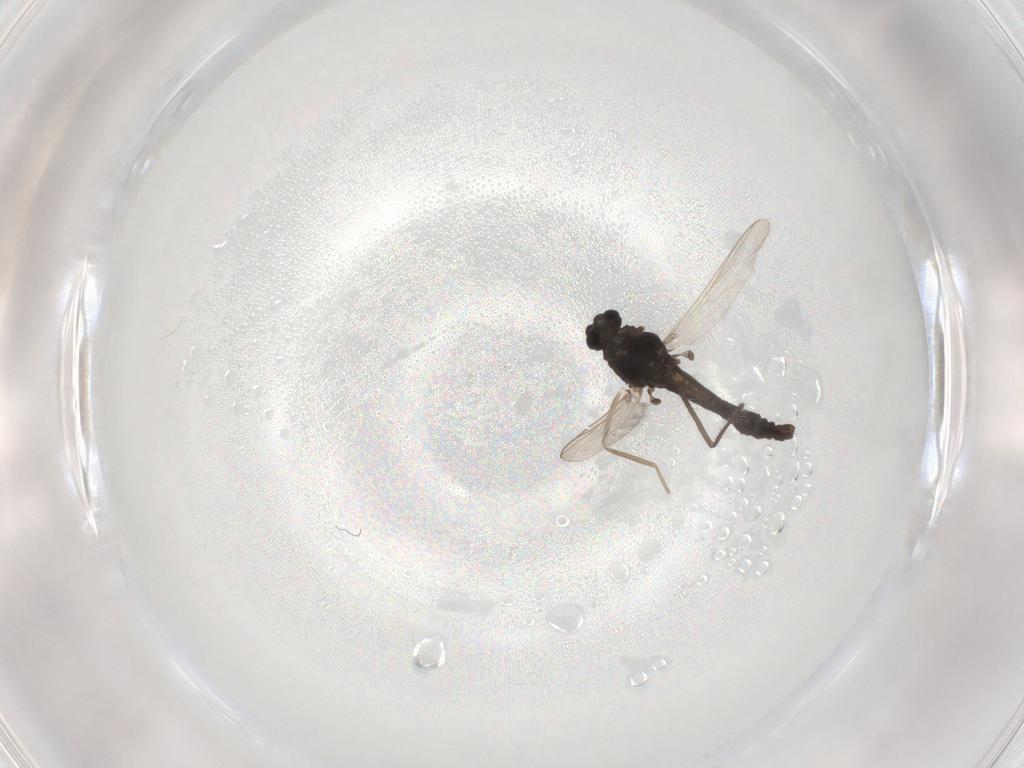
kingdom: Animalia
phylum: Arthropoda
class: Insecta
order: Diptera
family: Chironomidae
